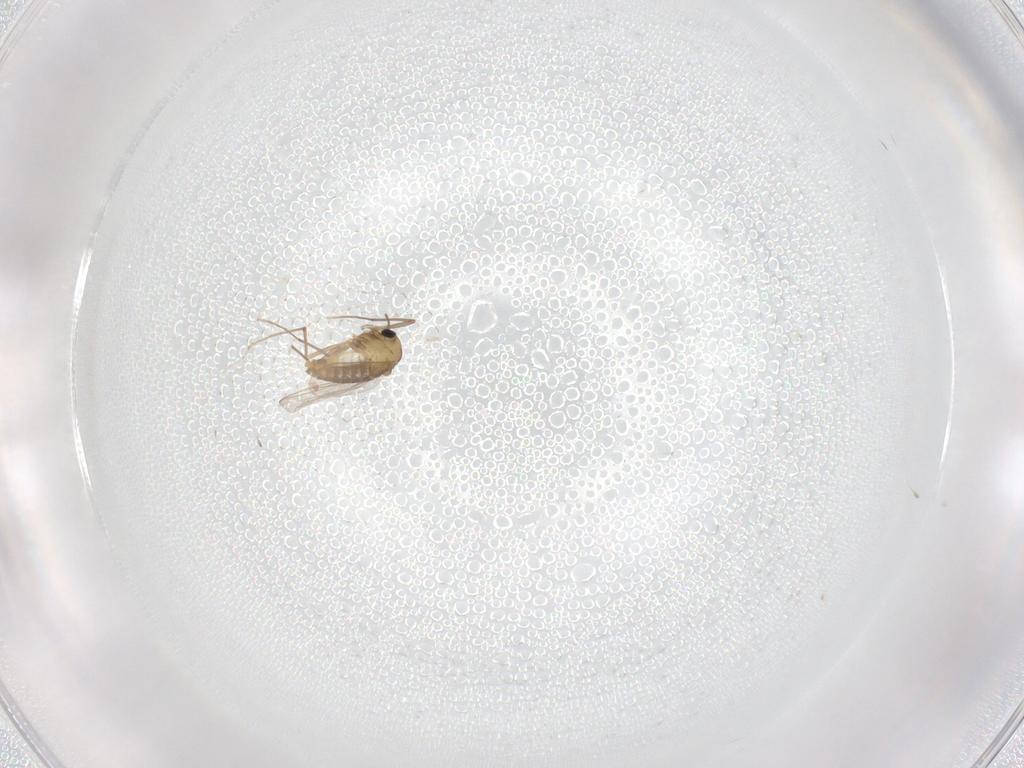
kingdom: Animalia
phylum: Arthropoda
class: Insecta
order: Diptera
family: Chironomidae
